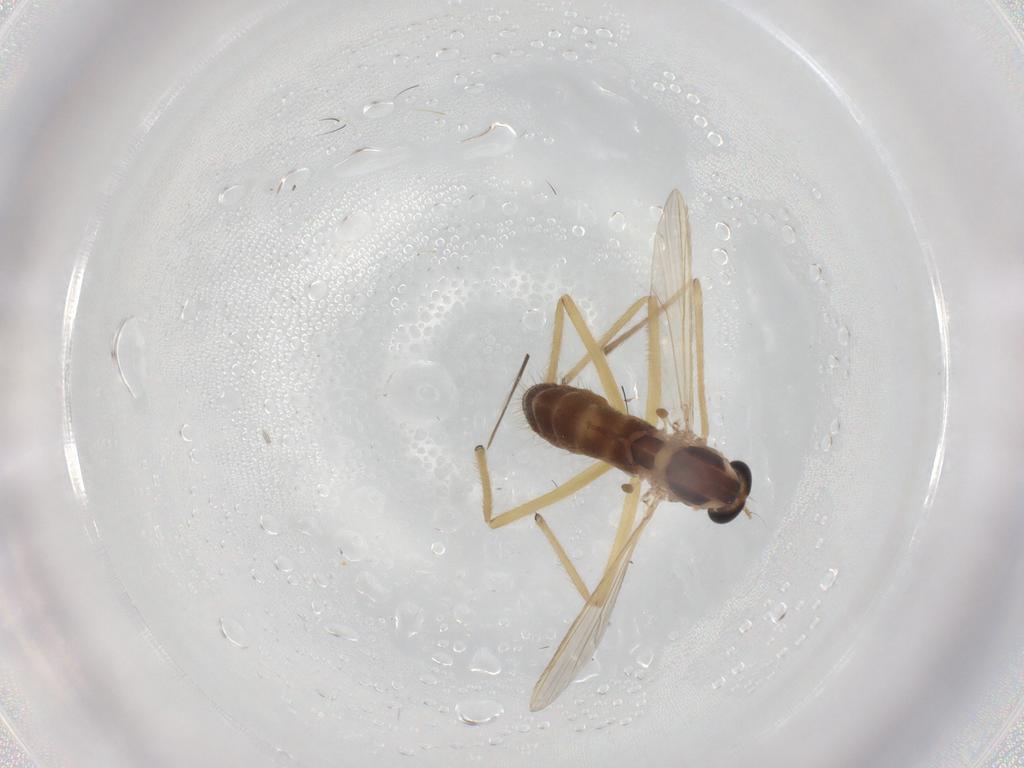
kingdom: Animalia
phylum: Arthropoda
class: Insecta
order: Diptera
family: Chironomidae
